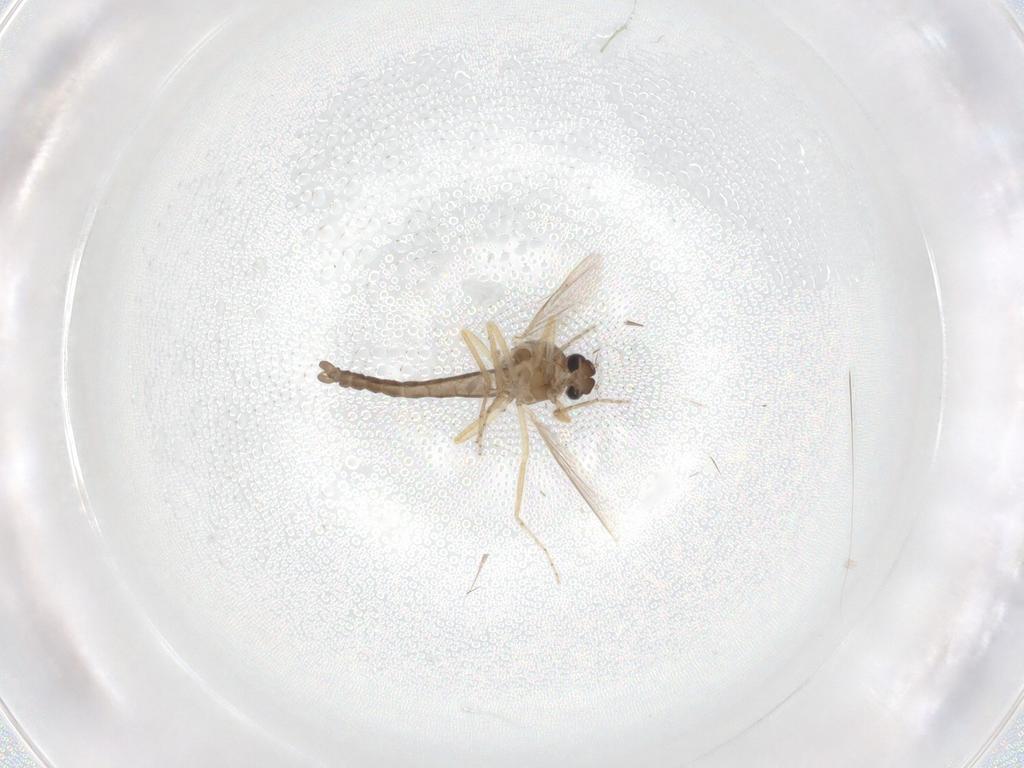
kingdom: Animalia
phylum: Arthropoda
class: Insecta
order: Diptera
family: Ceratopogonidae
